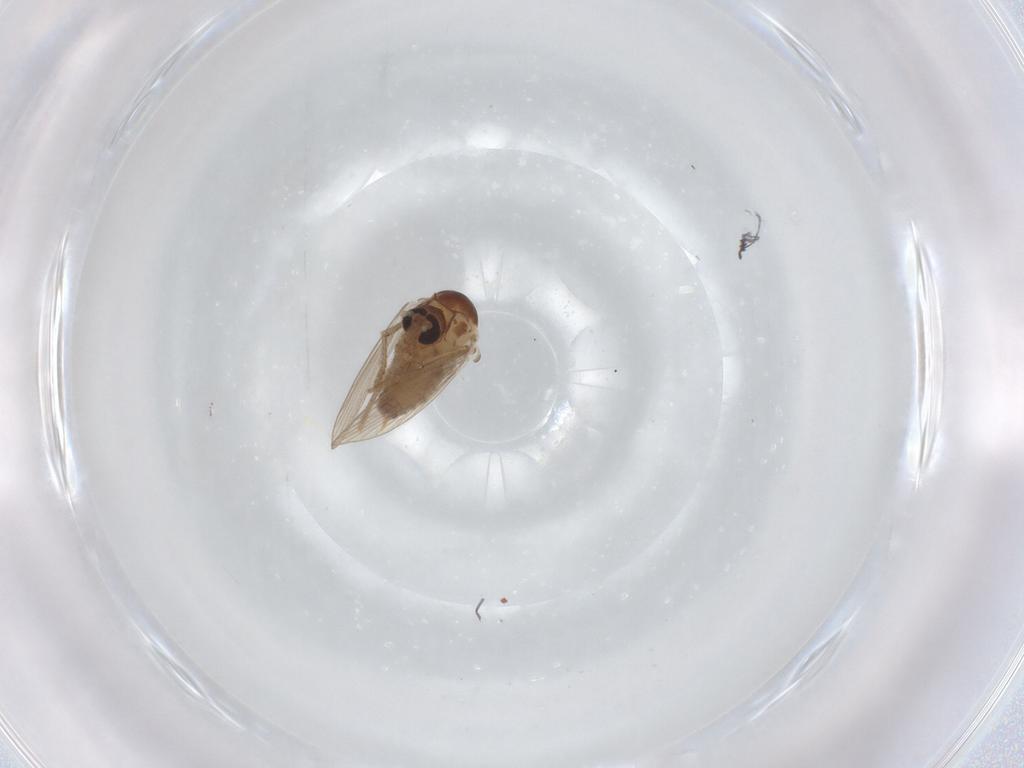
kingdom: Animalia
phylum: Arthropoda
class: Insecta
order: Diptera
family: Psychodidae
